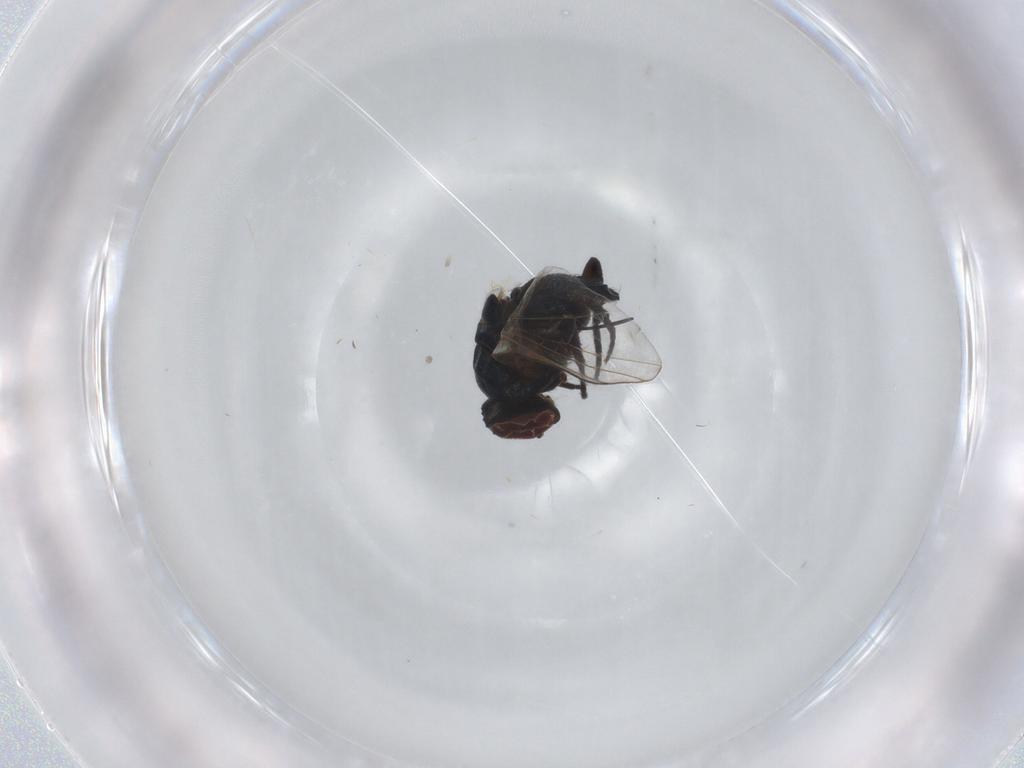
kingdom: Animalia
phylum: Arthropoda
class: Insecta
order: Diptera
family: Agromyzidae
